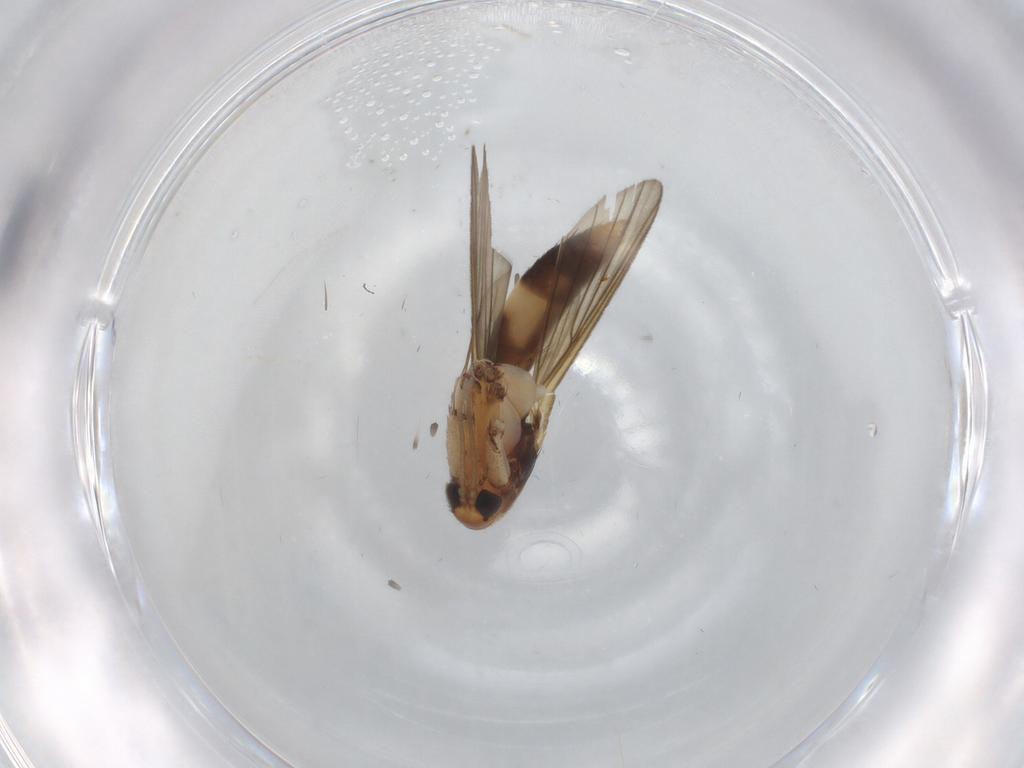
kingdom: Animalia
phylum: Arthropoda
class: Insecta
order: Diptera
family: Mycetophilidae
